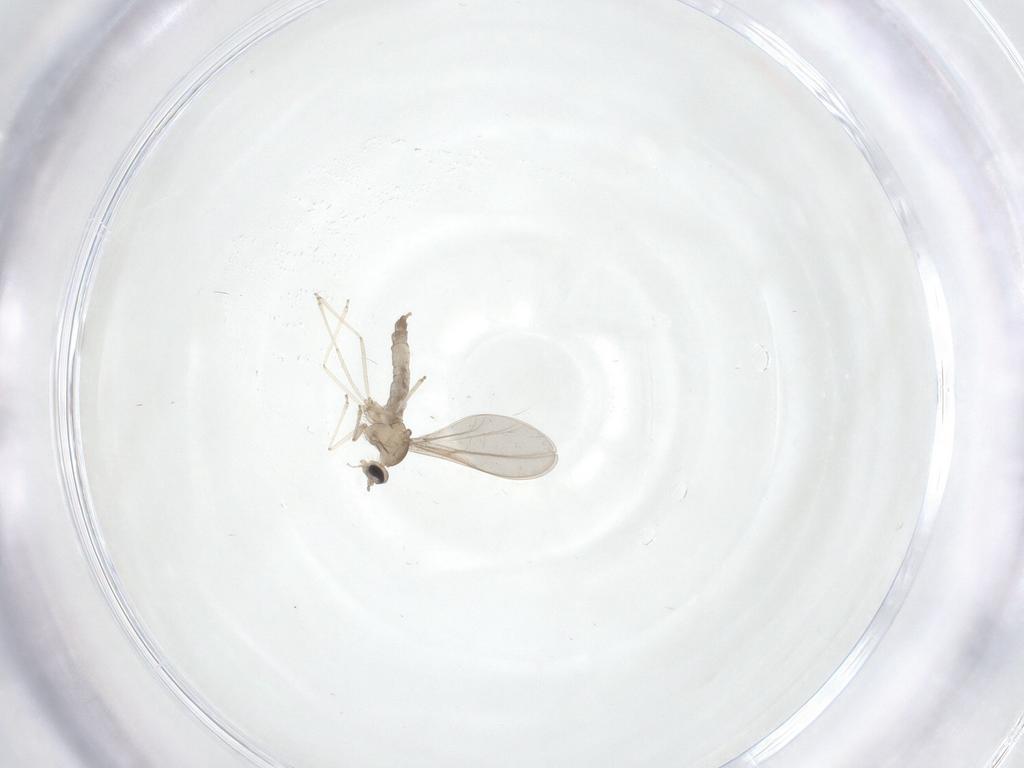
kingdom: Animalia
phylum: Arthropoda
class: Insecta
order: Diptera
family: Cecidomyiidae
